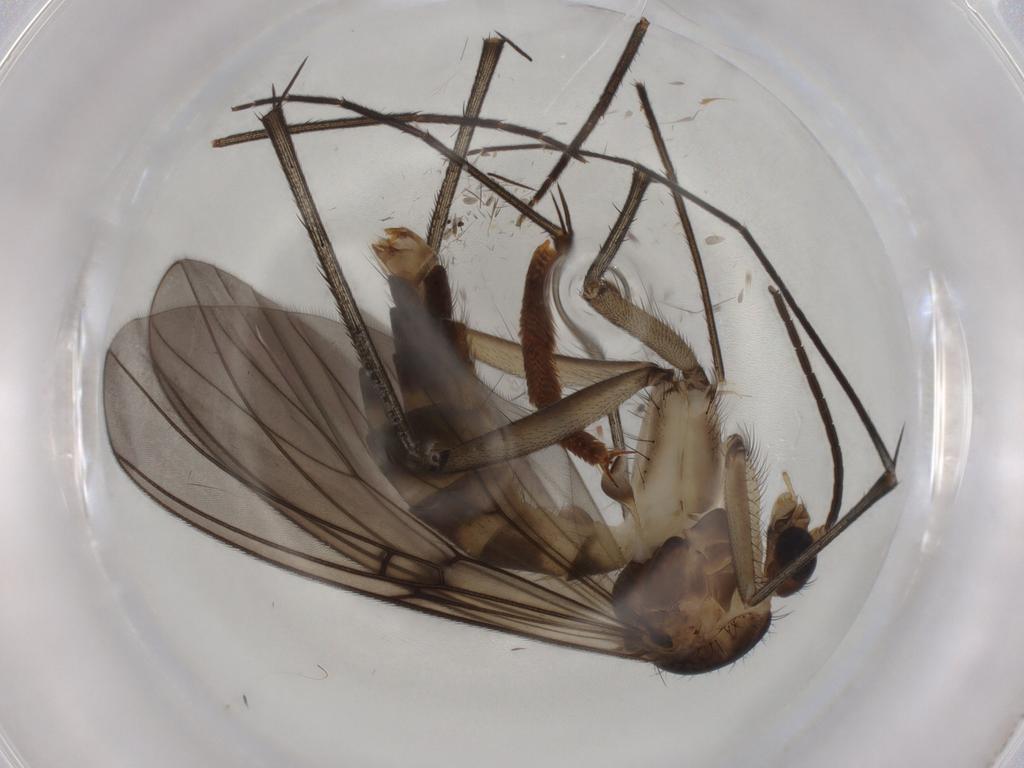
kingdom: Animalia
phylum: Arthropoda
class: Insecta
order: Diptera
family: Mycetophilidae
